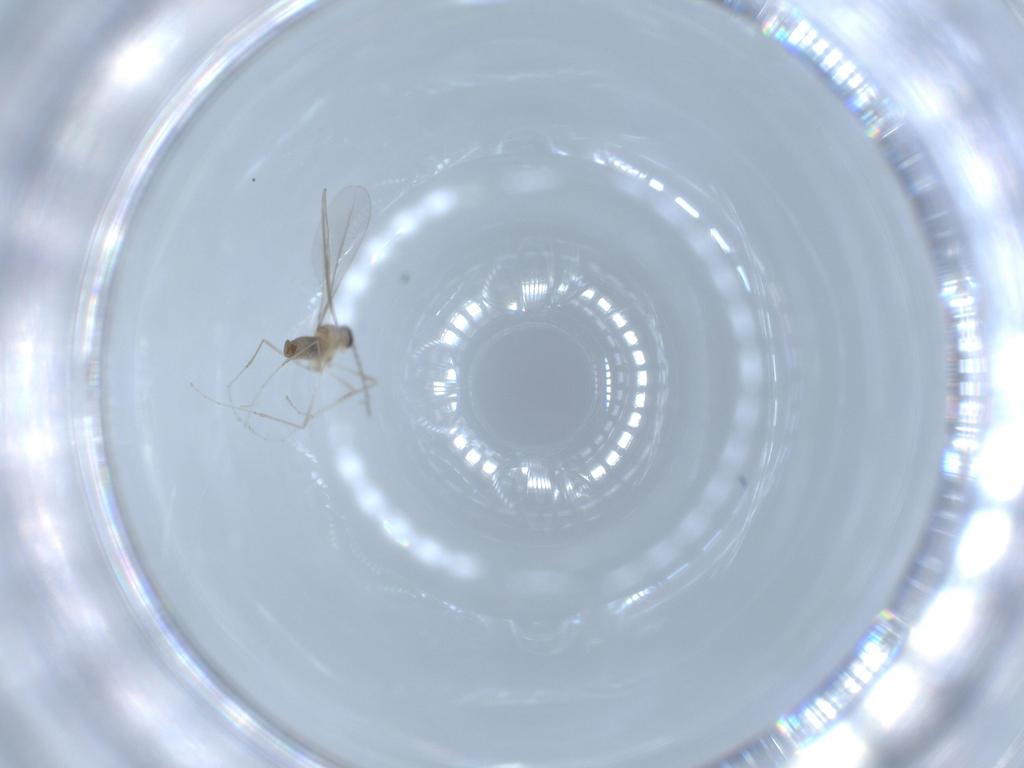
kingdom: Animalia
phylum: Arthropoda
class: Insecta
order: Diptera
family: Cecidomyiidae
